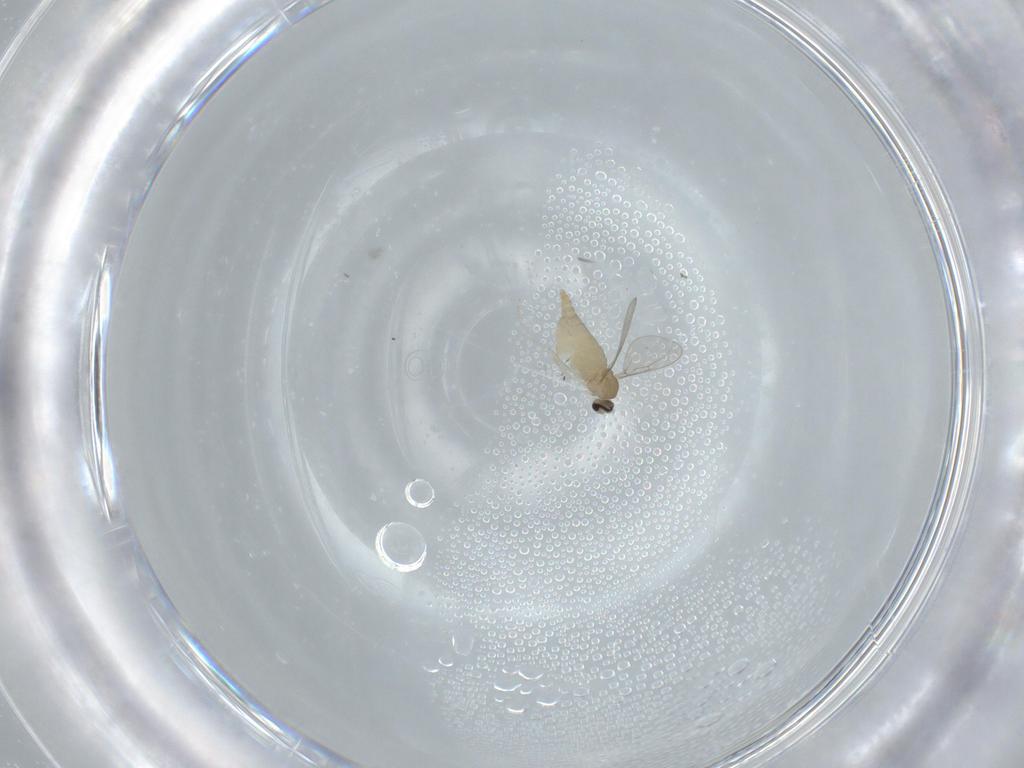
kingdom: Animalia
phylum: Arthropoda
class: Insecta
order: Diptera
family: Cecidomyiidae
